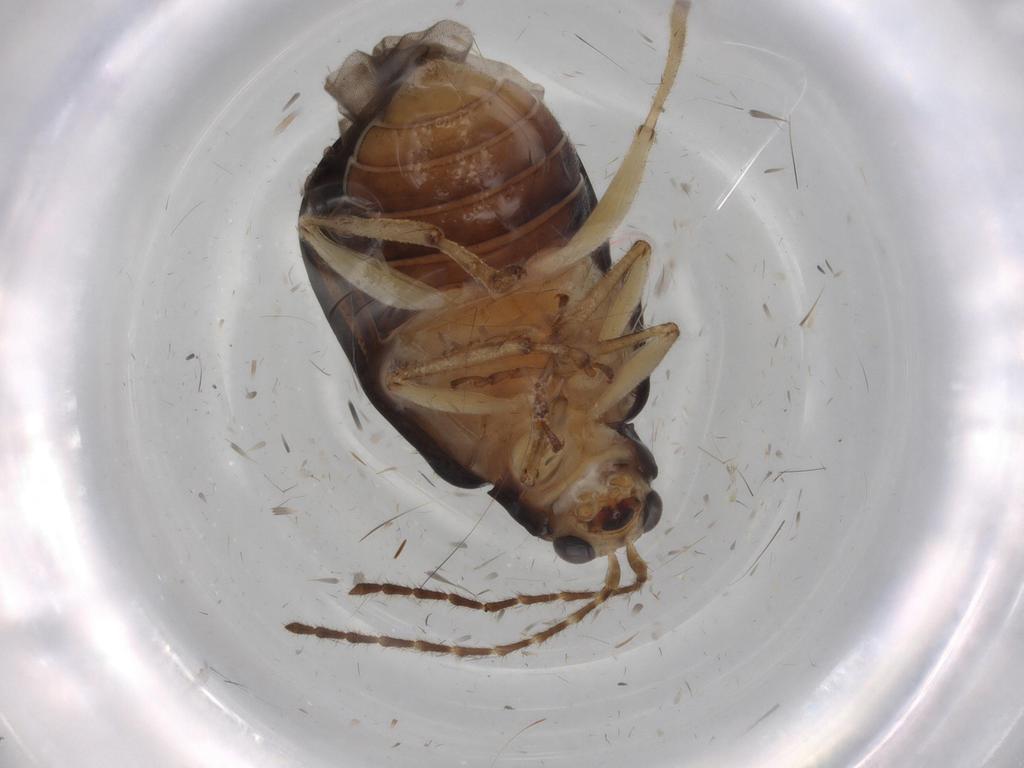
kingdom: Animalia
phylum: Arthropoda
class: Insecta
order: Coleoptera
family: Chrysomelidae
